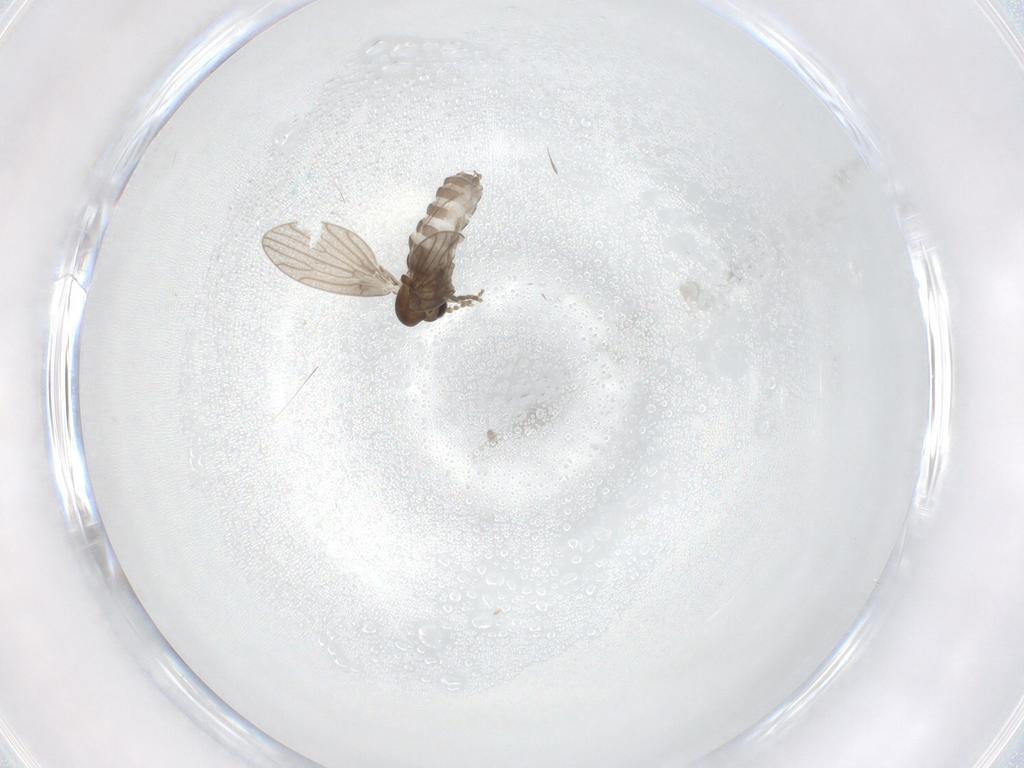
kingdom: Animalia
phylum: Arthropoda
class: Insecta
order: Diptera
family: Psychodidae
